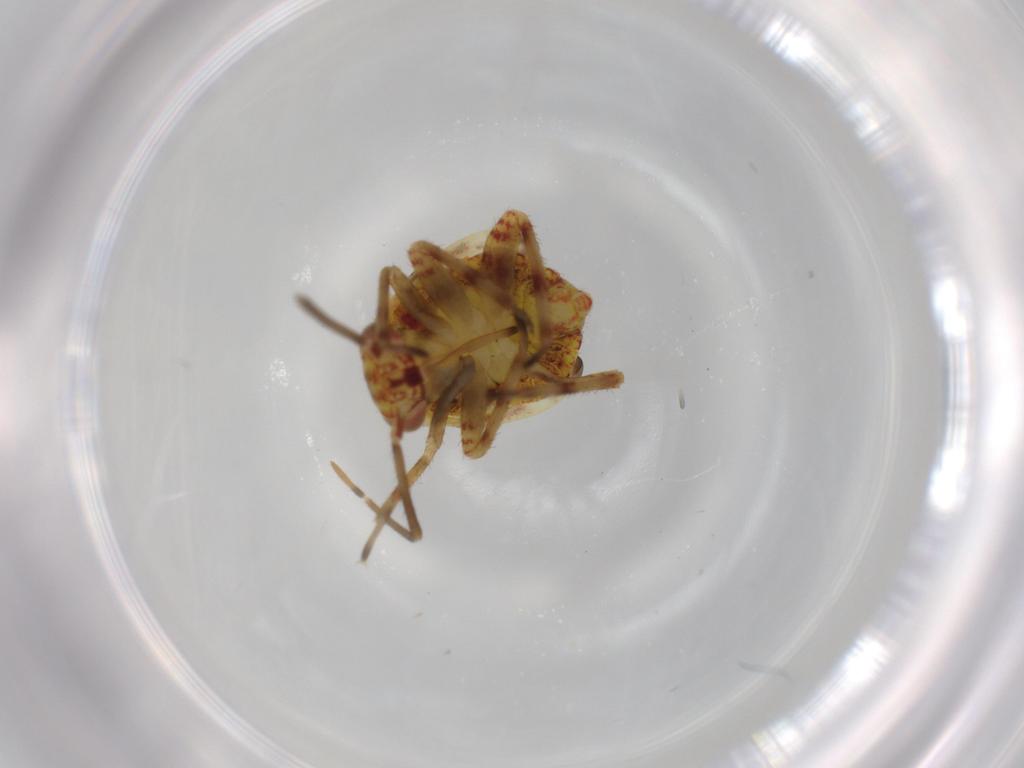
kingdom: Animalia
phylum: Arthropoda
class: Insecta
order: Hemiptera
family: Miridae
